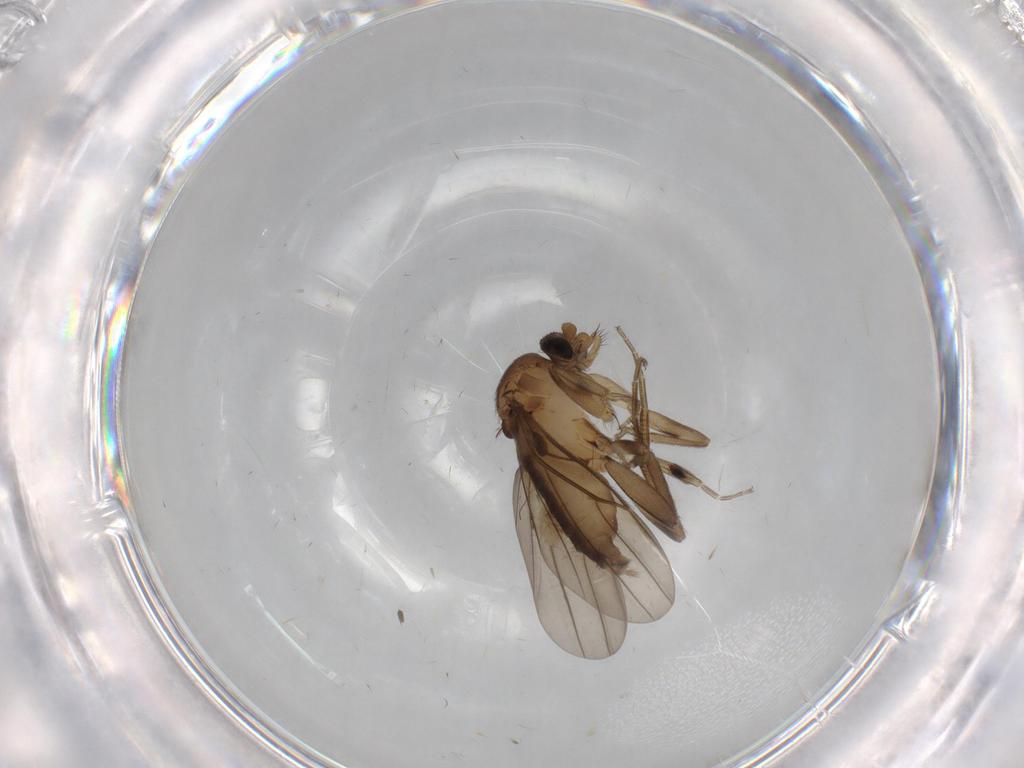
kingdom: Animalia
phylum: Arthropoda
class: Insecta
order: Diptera
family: Phoridae
